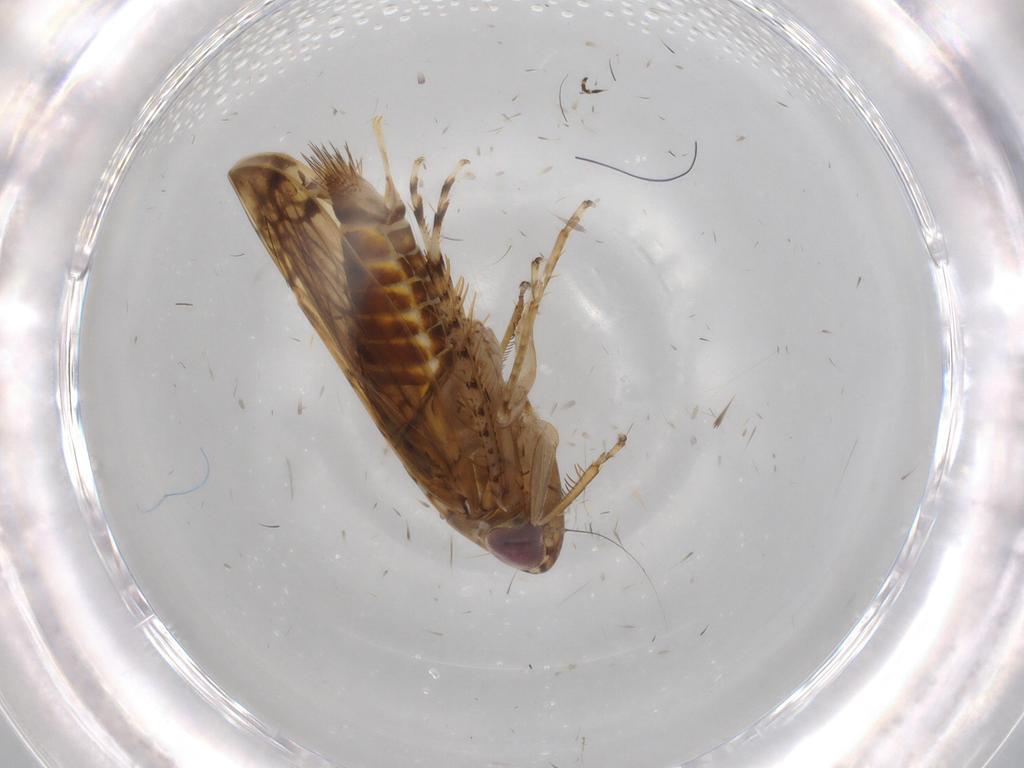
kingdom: Animalia
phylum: Arthropoda
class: Insecta
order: Hemiptera
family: Cicadellidae
